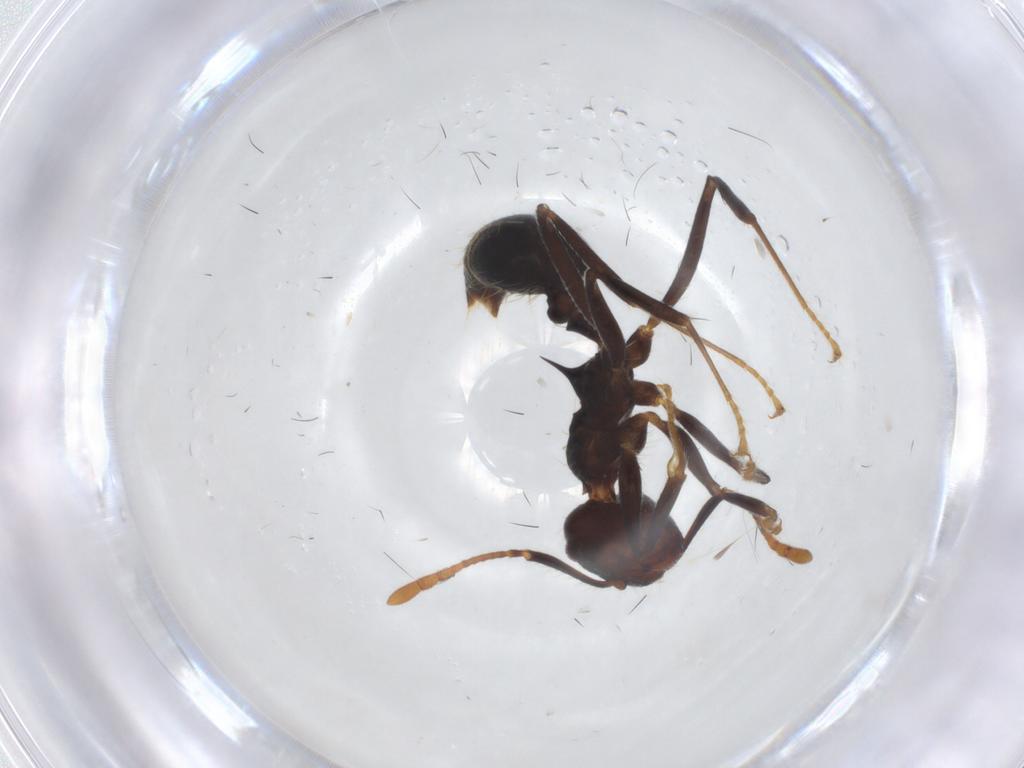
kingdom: Animalia
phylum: Arthropoda
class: Insecta
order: Hymenoptera
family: Formicidae
